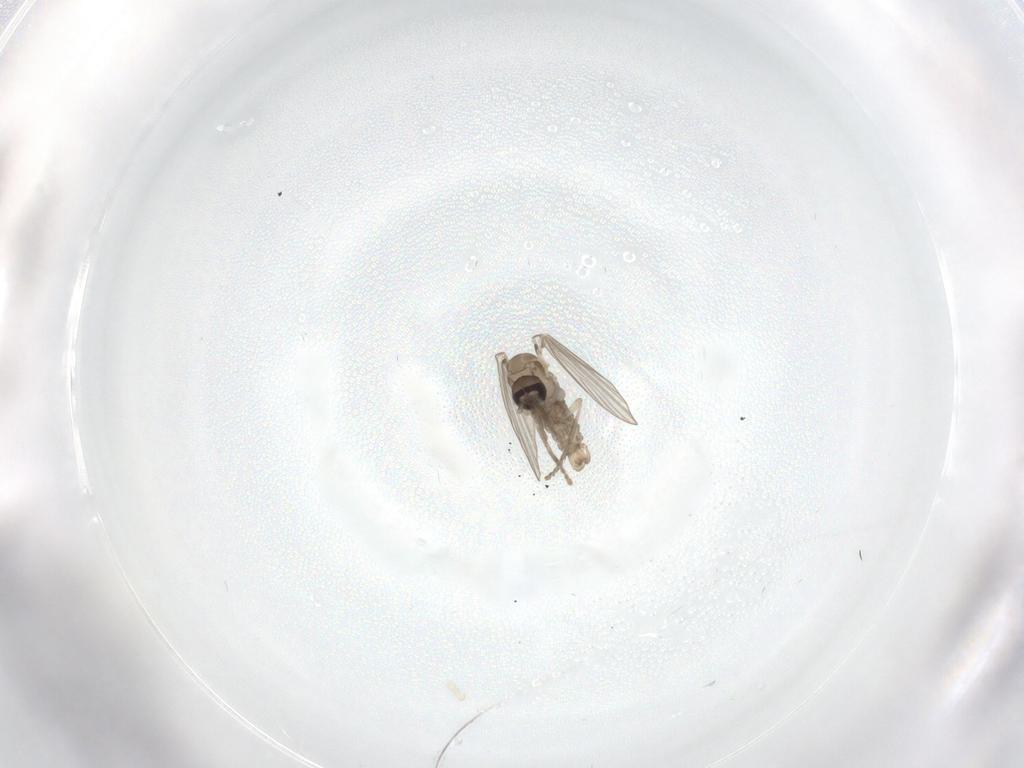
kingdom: Animalia
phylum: Arthropoda
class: Insecta
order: Diptera
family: Psychodidae
